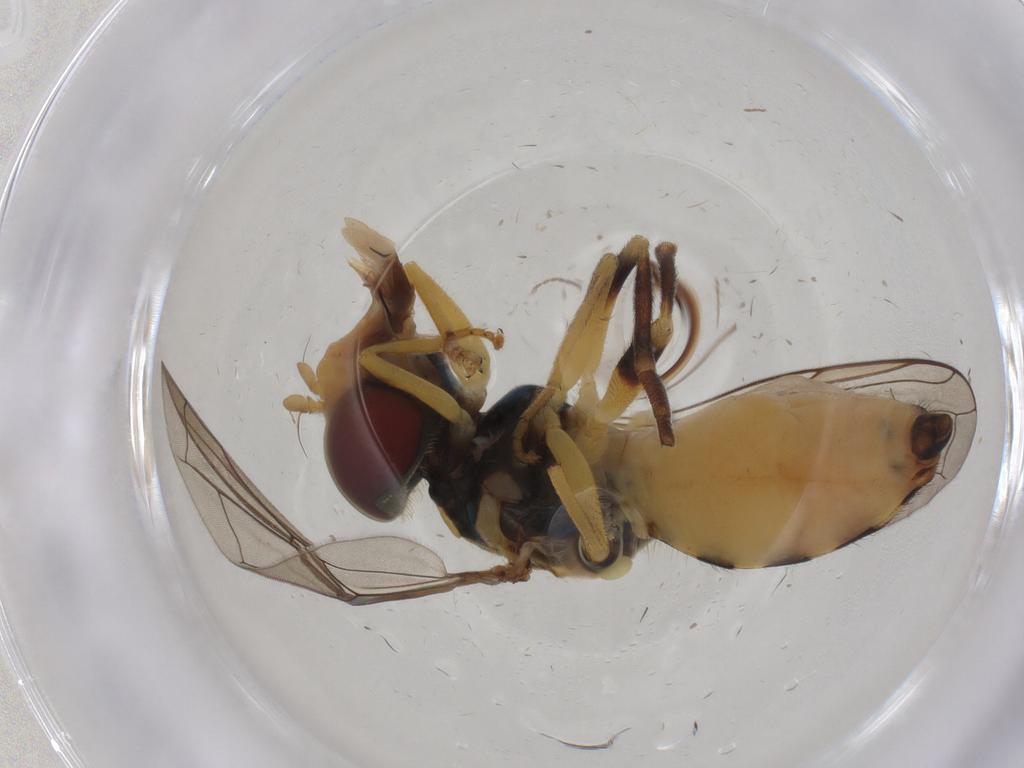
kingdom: Animalia
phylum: Arthropoda
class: Insecta
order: Diptera
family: Syrphidae
